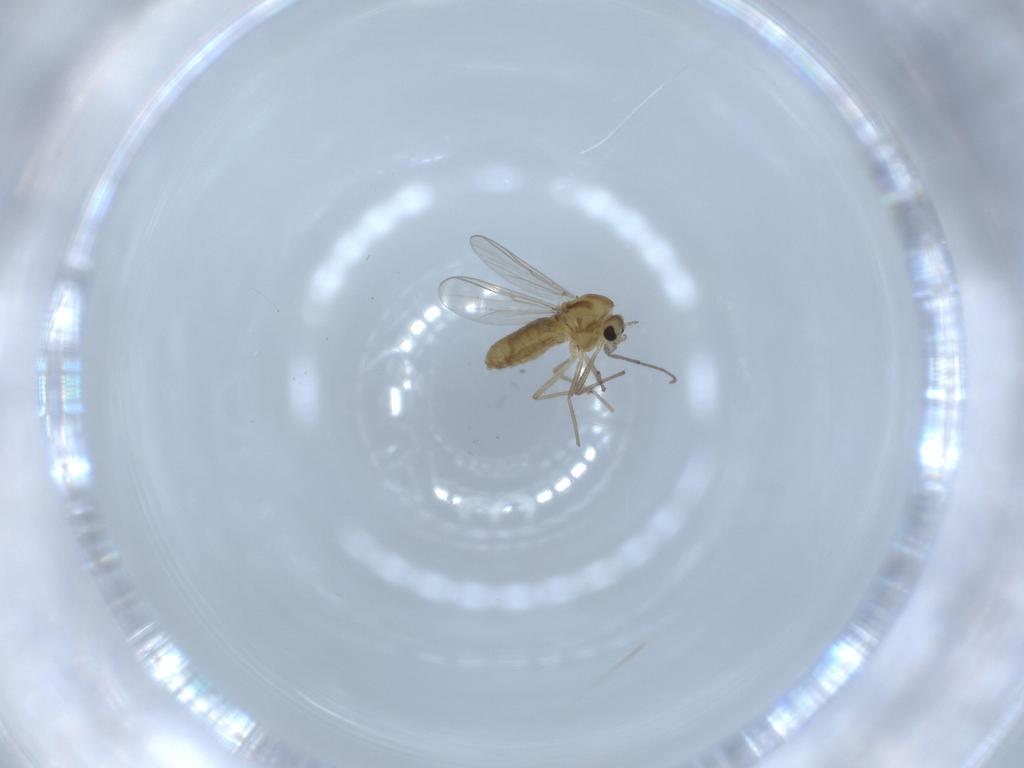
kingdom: Animalia
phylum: Arthropoda
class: Insecta
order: Diptera
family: Chironomidae
